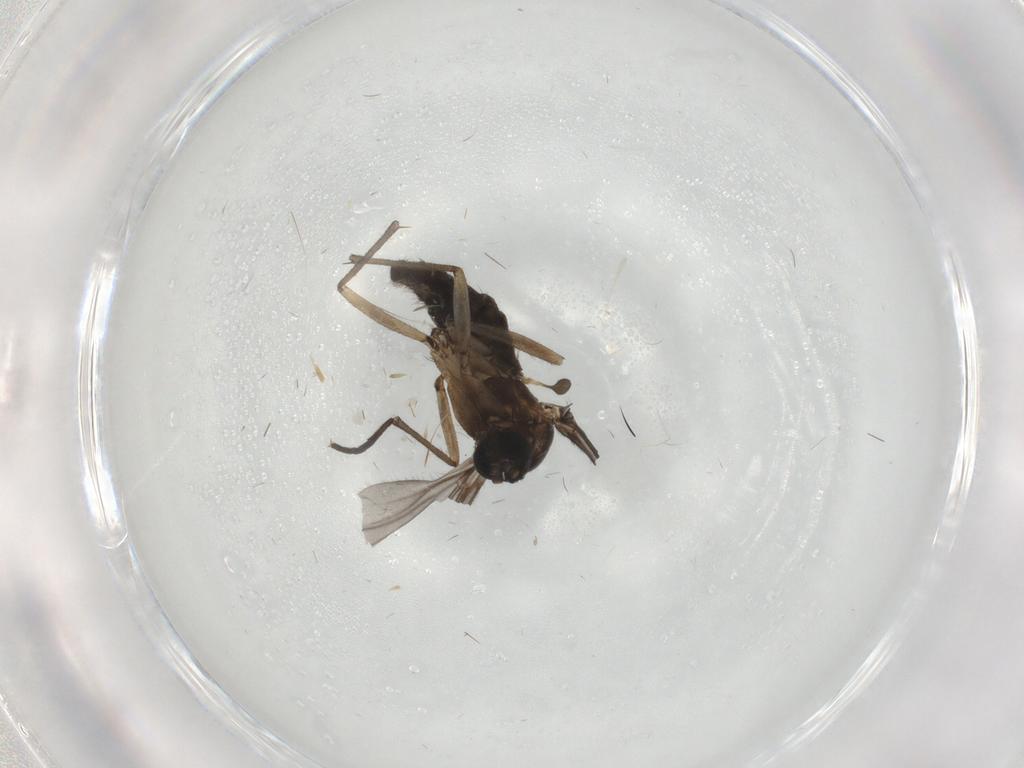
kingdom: Animalia
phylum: Arthropoda
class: Insecta
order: Diptera
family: Sciaridae
